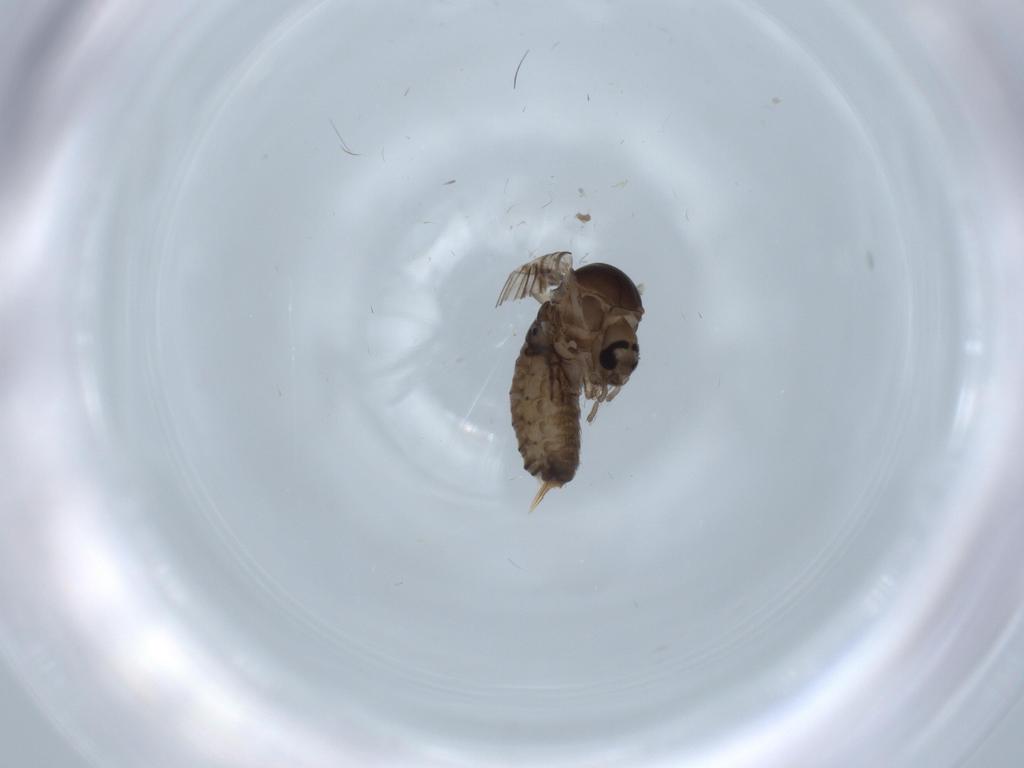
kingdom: Animalia
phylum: Arthropoda
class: Insecta
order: Diptera
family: Psychodidae
